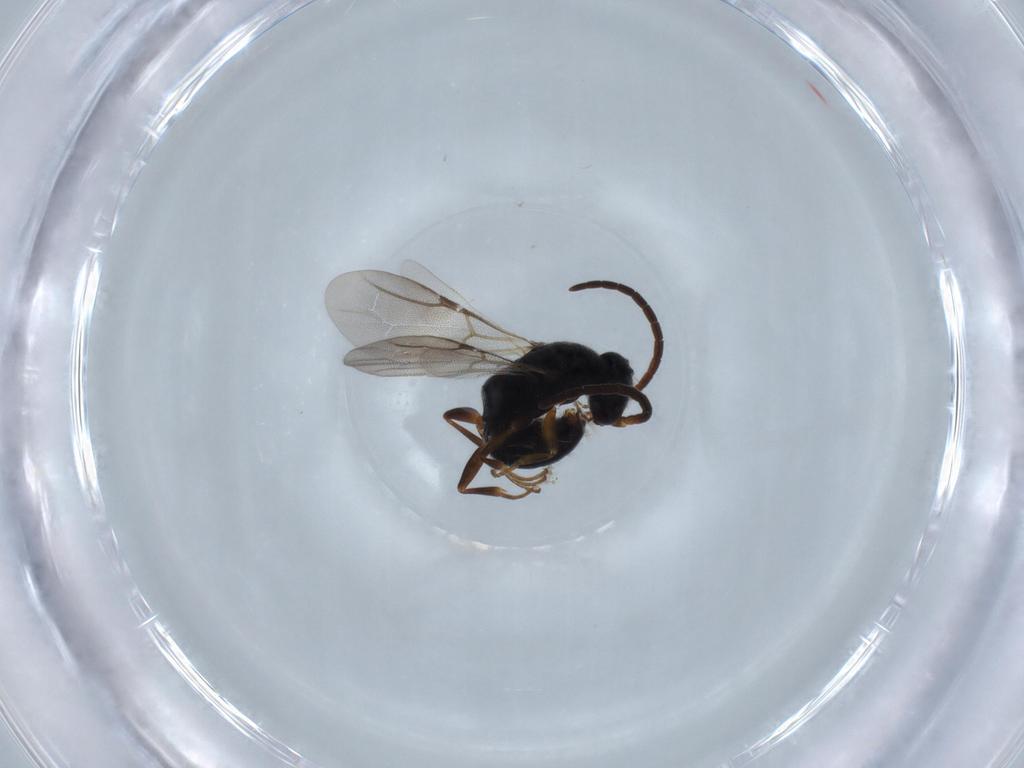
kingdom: Animalia
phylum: Arthropoda
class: Insecta
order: Hymenoptera
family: Bethylidae
